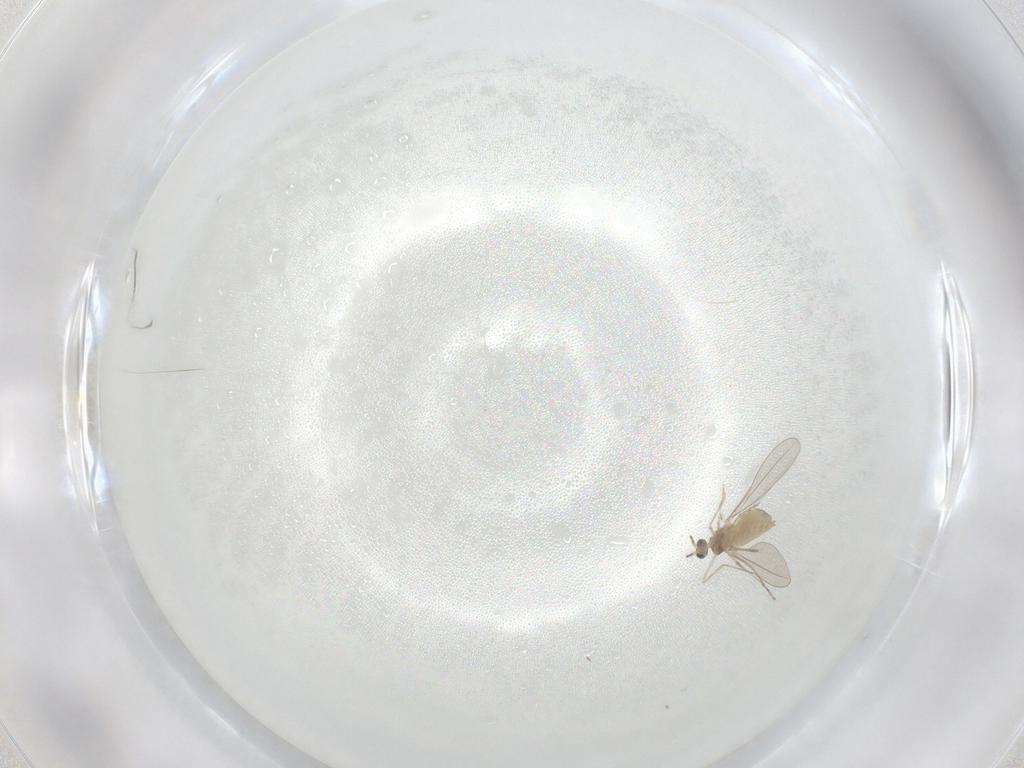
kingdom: Animalia
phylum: Arthropoda
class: Insecta
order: Diptera
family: Cecidomyiidae
